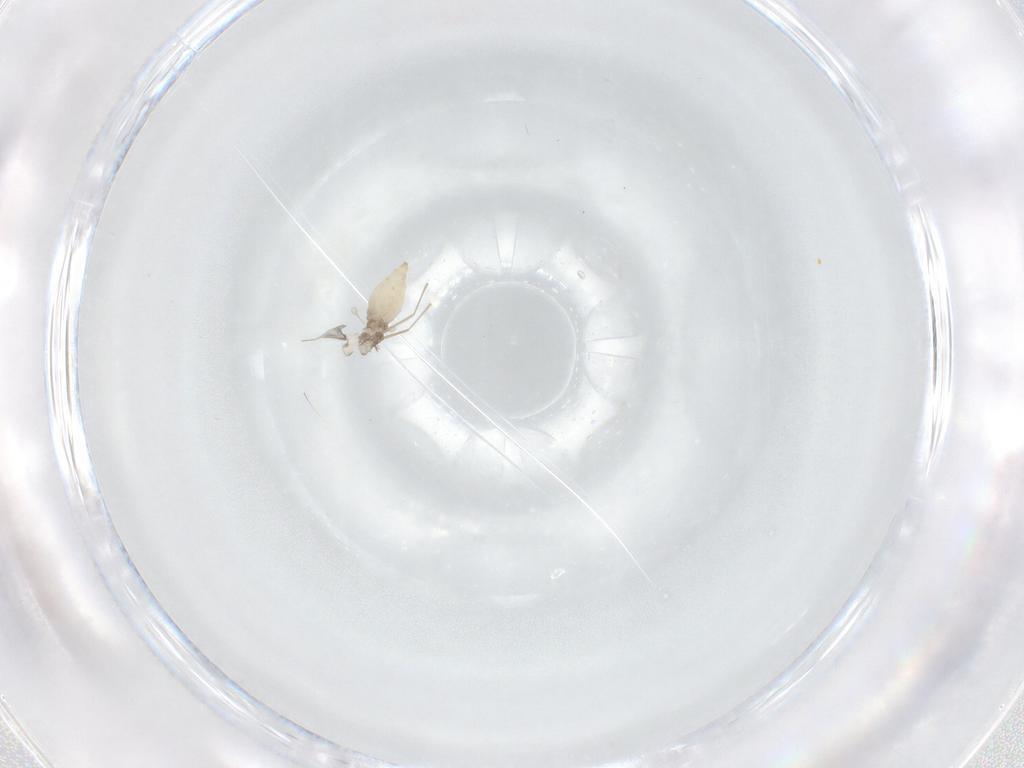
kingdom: Animalia
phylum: Arthropoda
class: Insecta
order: Diptera
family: Cecidomyiidae
